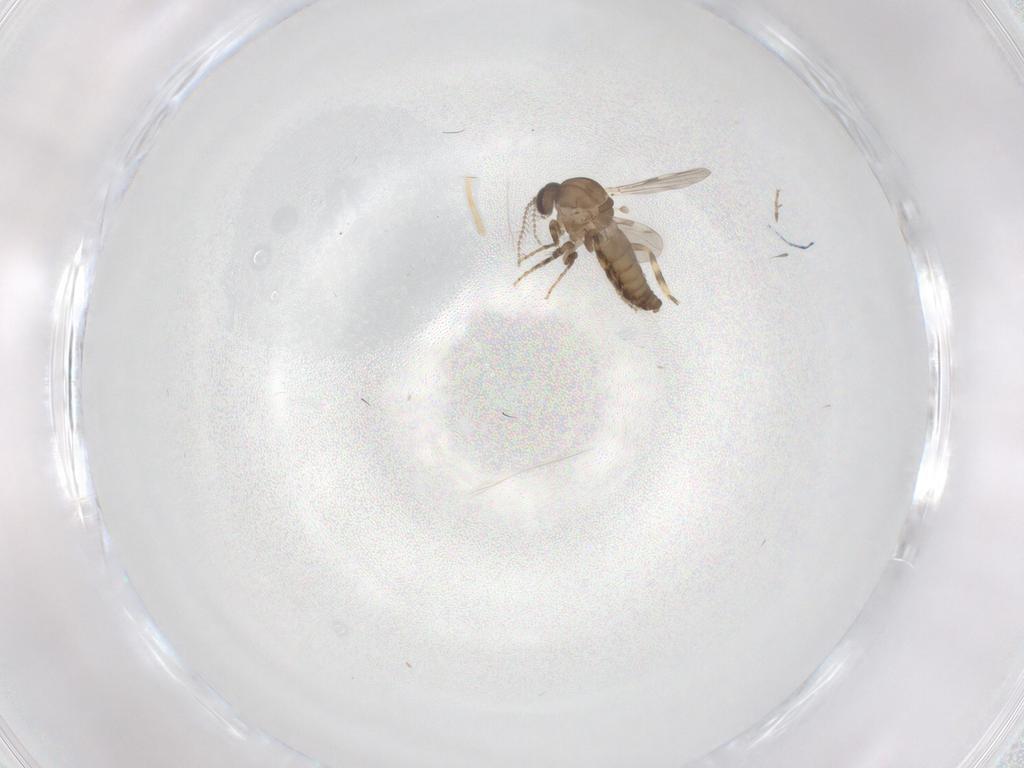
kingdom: Animalia
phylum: Arthropoda
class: Insecta
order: Diptera
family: Ceratopogonidae
